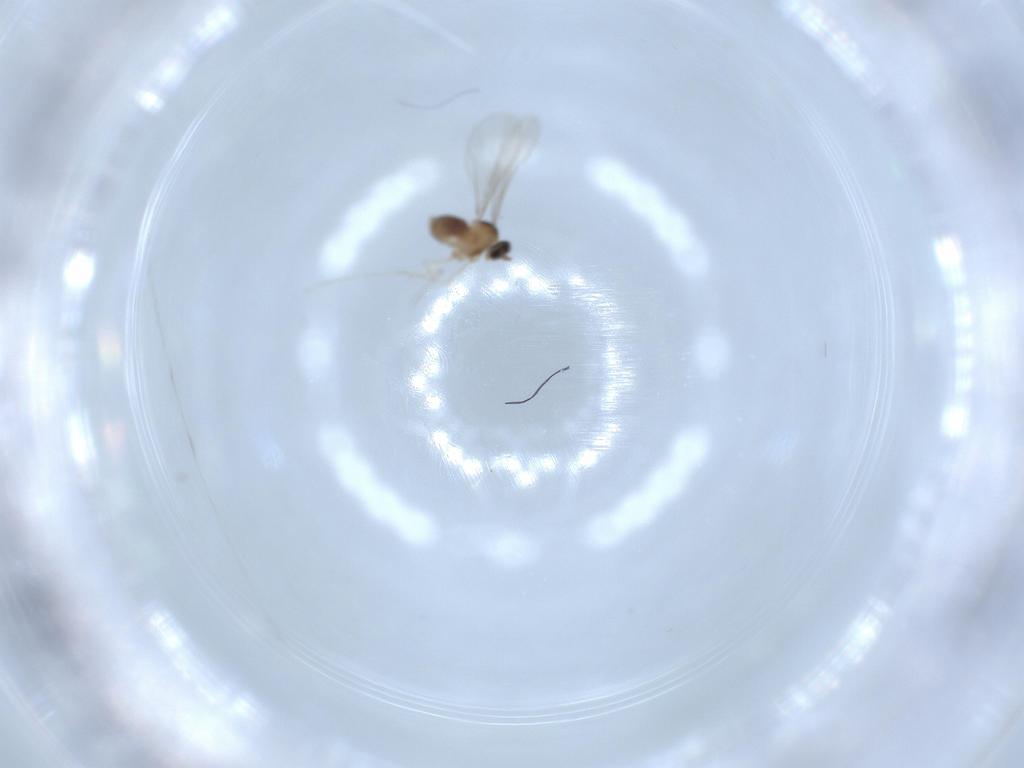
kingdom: Animalia
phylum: Arthropoda
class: Insecta
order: Diptera
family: Cecidomyiidae
